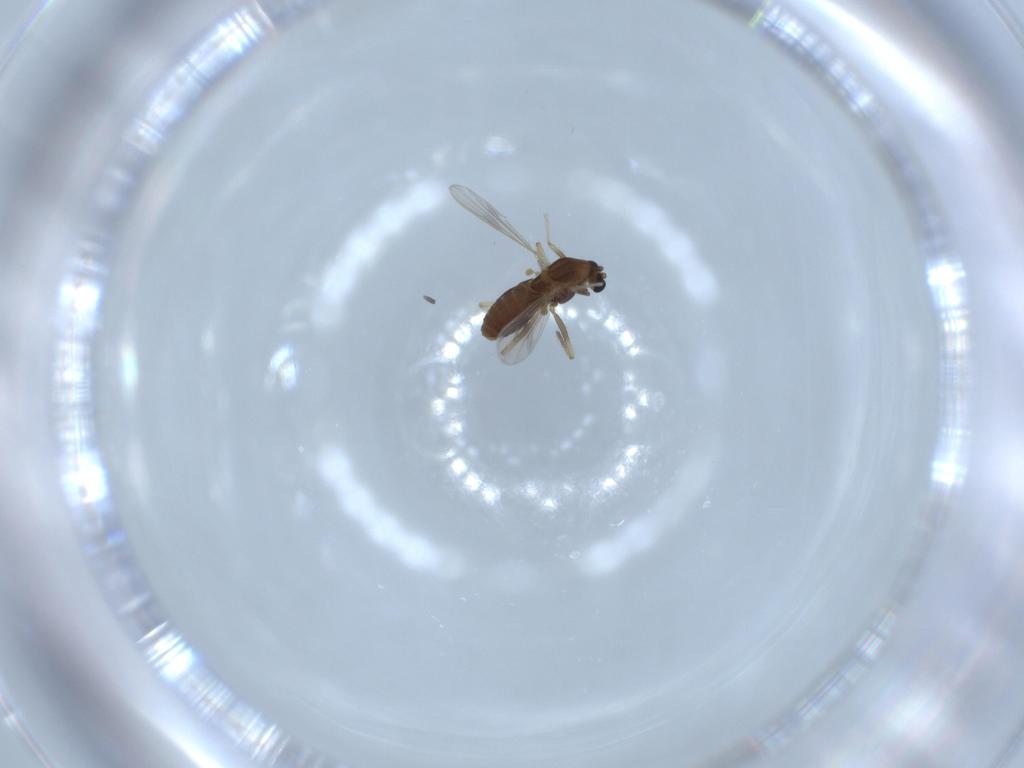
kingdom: Animalia
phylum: Arthropoda
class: Insecta
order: Diptera
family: Chironomidae
